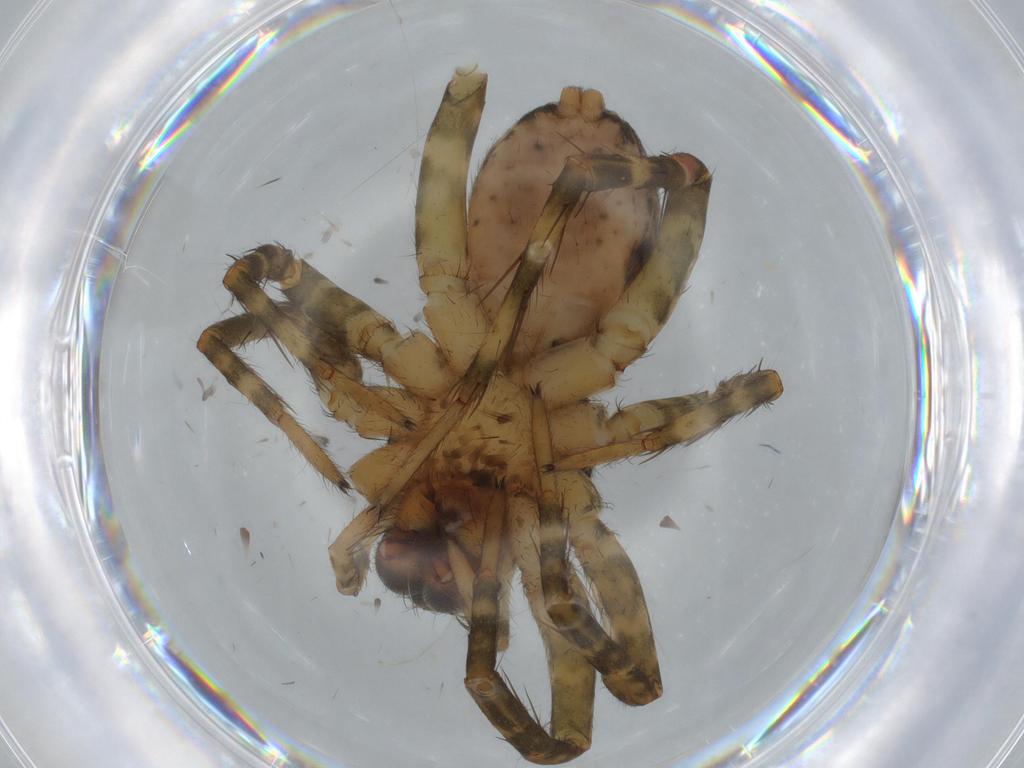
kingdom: Animalia
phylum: Arthropoda
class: Arachnida
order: Araneae
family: Lycosidae
